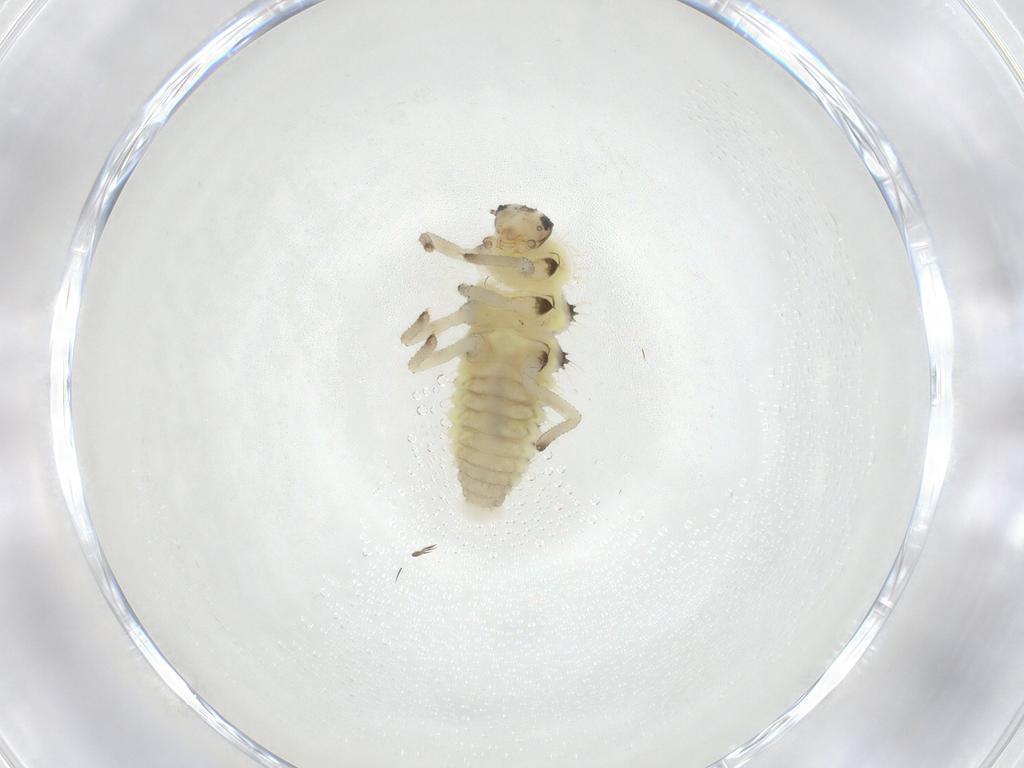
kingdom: Animalia
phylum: Arthropoda
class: Insecta
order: Coleoptera
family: Coccinellidae
